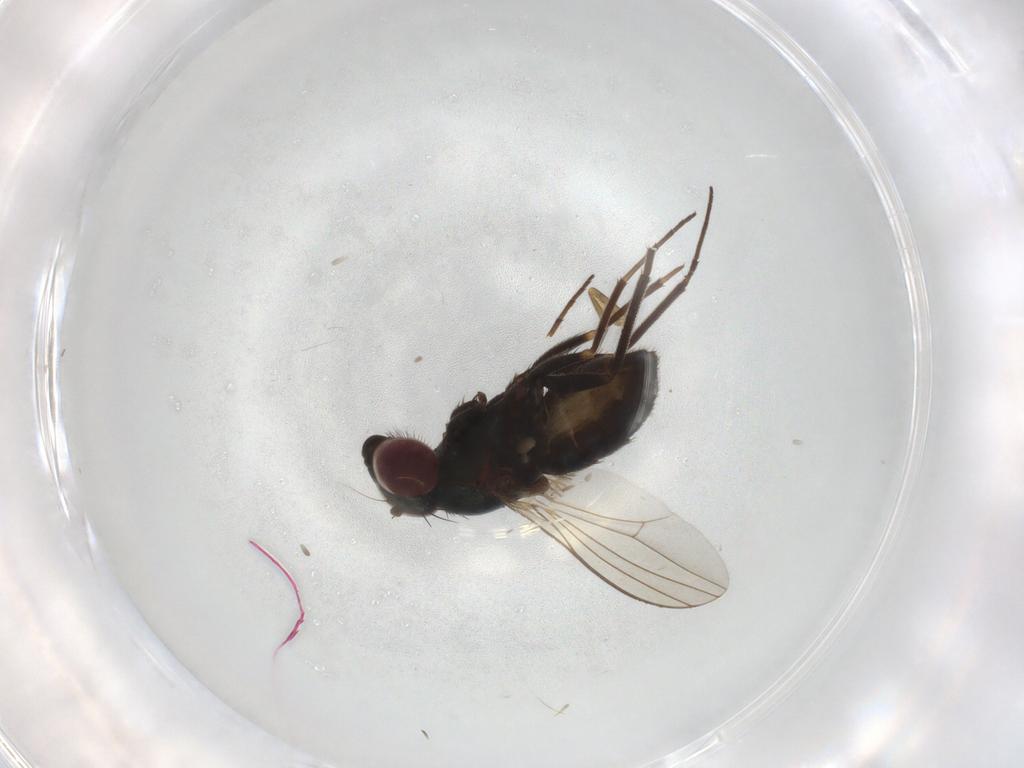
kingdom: Animalia
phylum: Arthropoda
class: Insecta
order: Diptera
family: Phoridae
